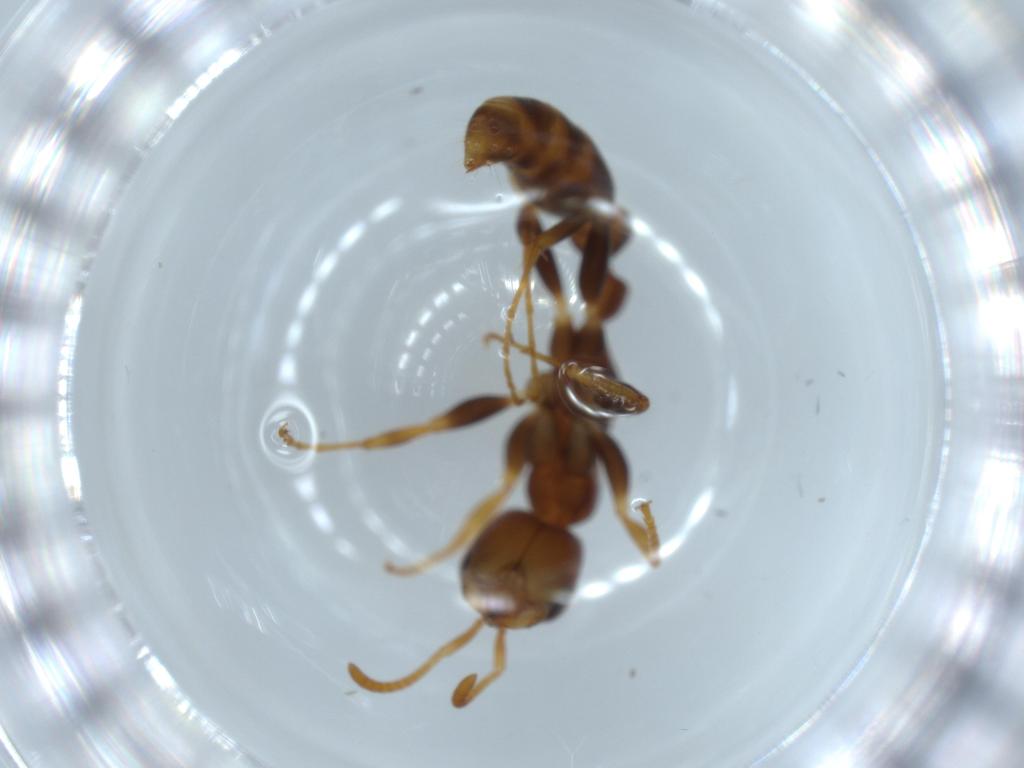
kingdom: Animalia
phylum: Arthropoda
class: Insecta
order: Hymenoptera
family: Formicidae
